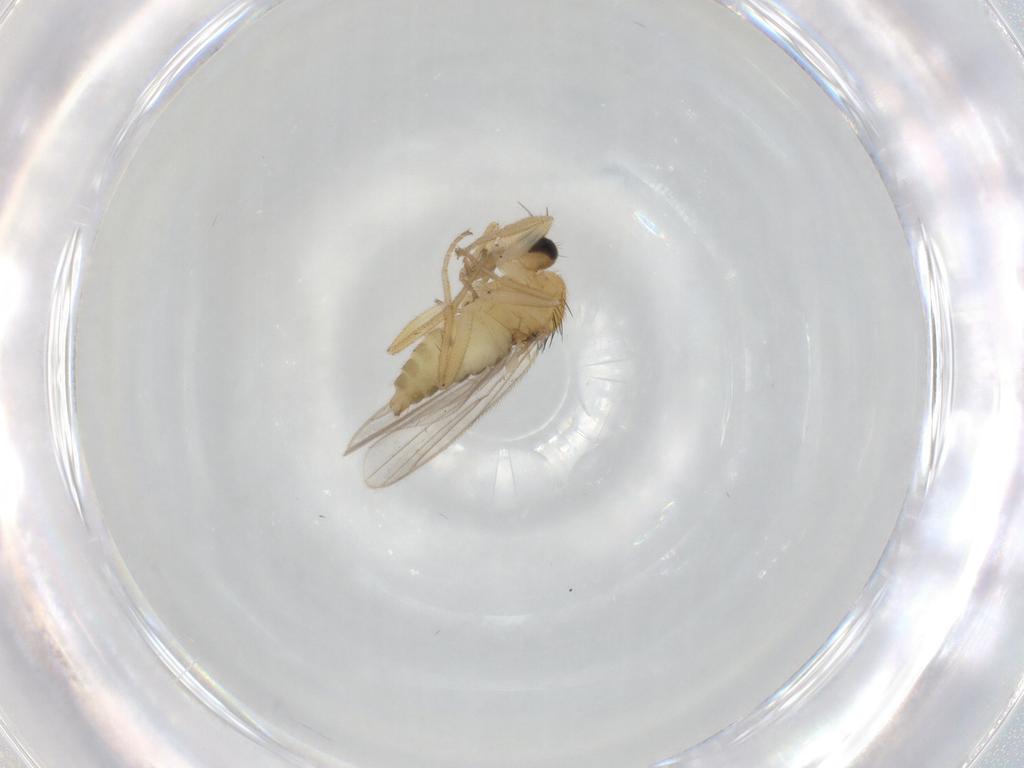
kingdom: Animalia
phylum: Arthropoda
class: Insecta
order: Diptera
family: Hybotidae
